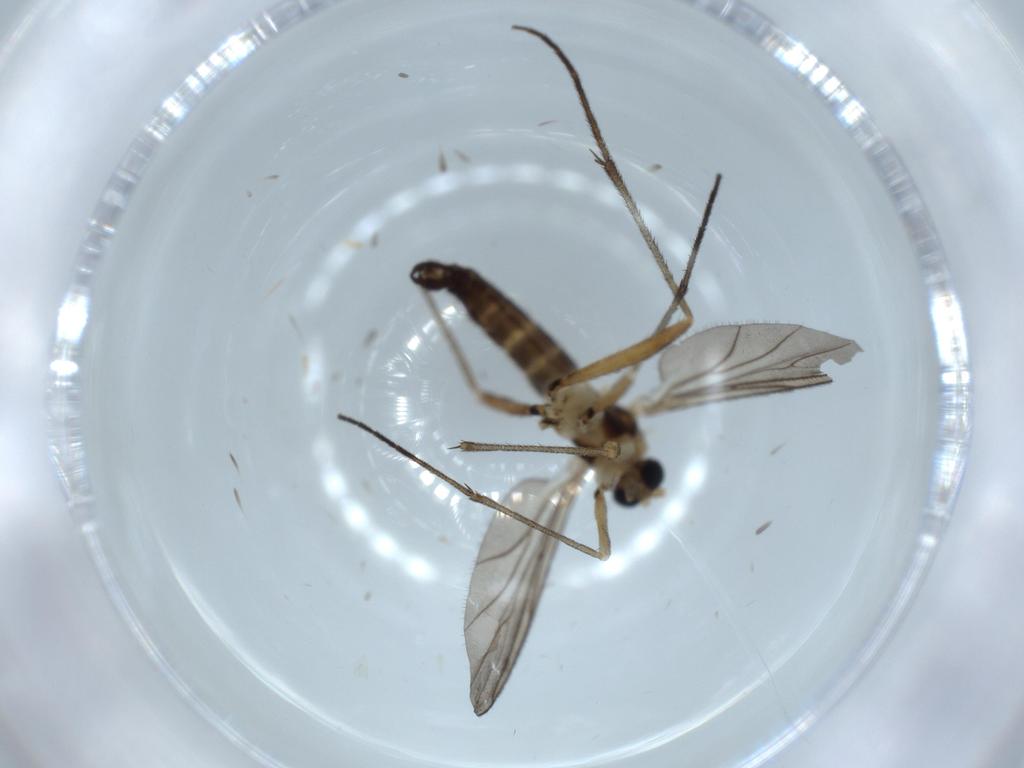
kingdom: Animalia
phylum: Arthropoda
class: Insecta
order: Diptera
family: Sciaridae
